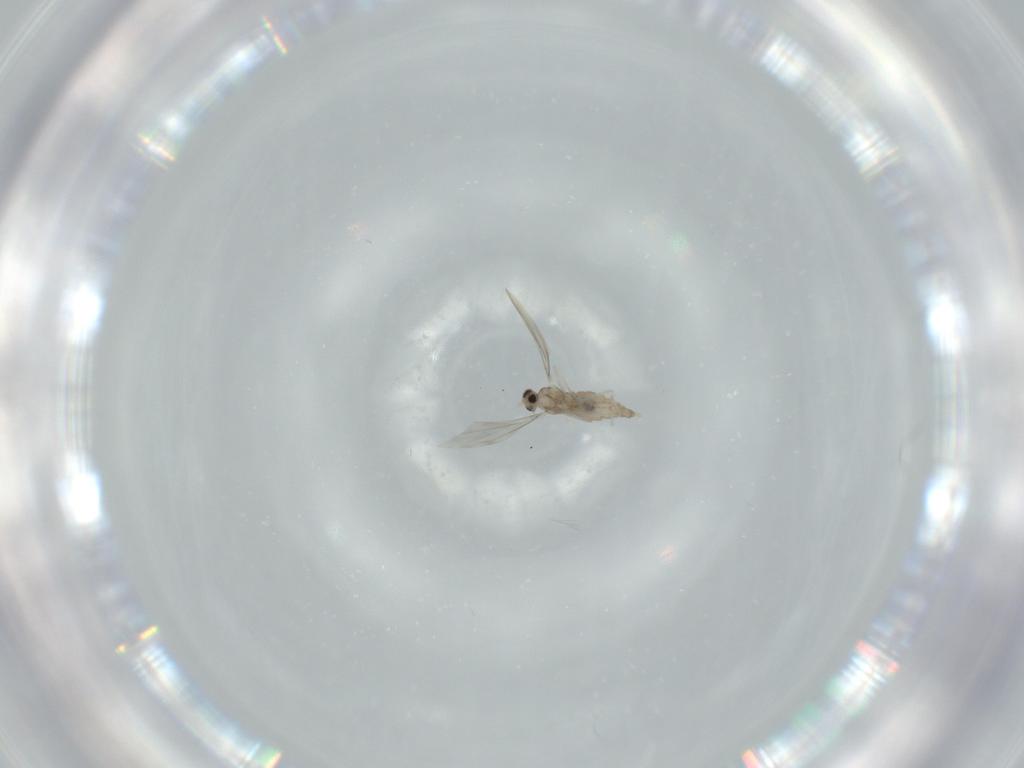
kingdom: Animalia
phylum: Arthropoda
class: Insecta
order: Diptera
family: Cecidomyiidae
